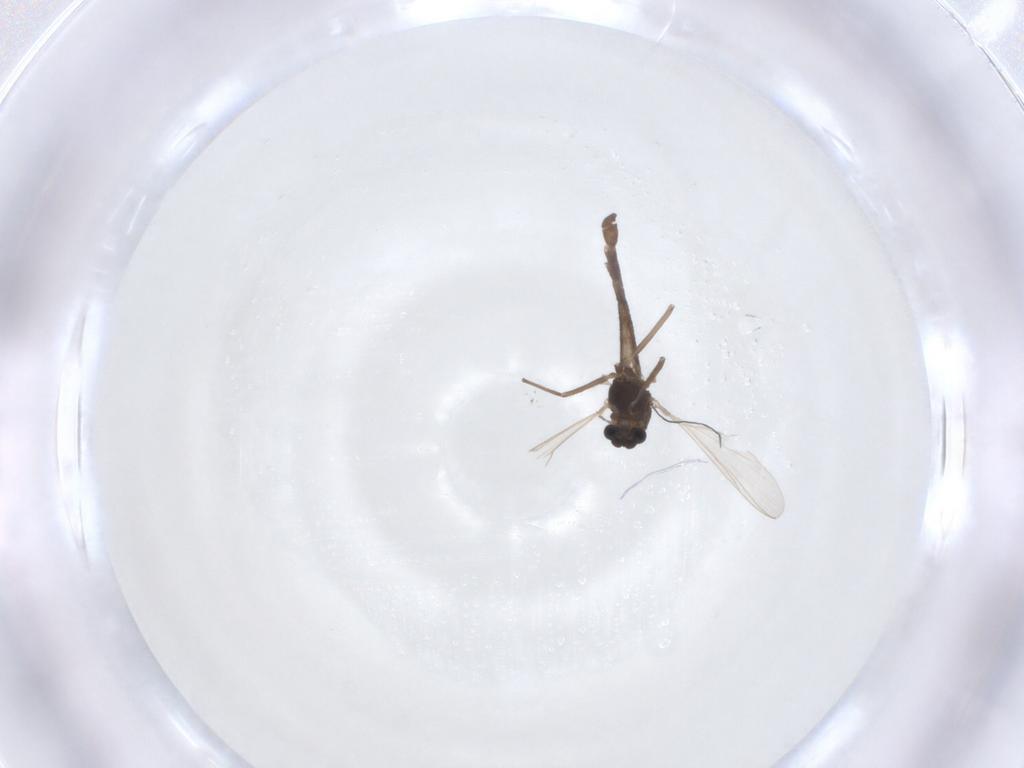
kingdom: Animalia
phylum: Arthropoda
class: Insecta
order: Diptera
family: Chironomidae
